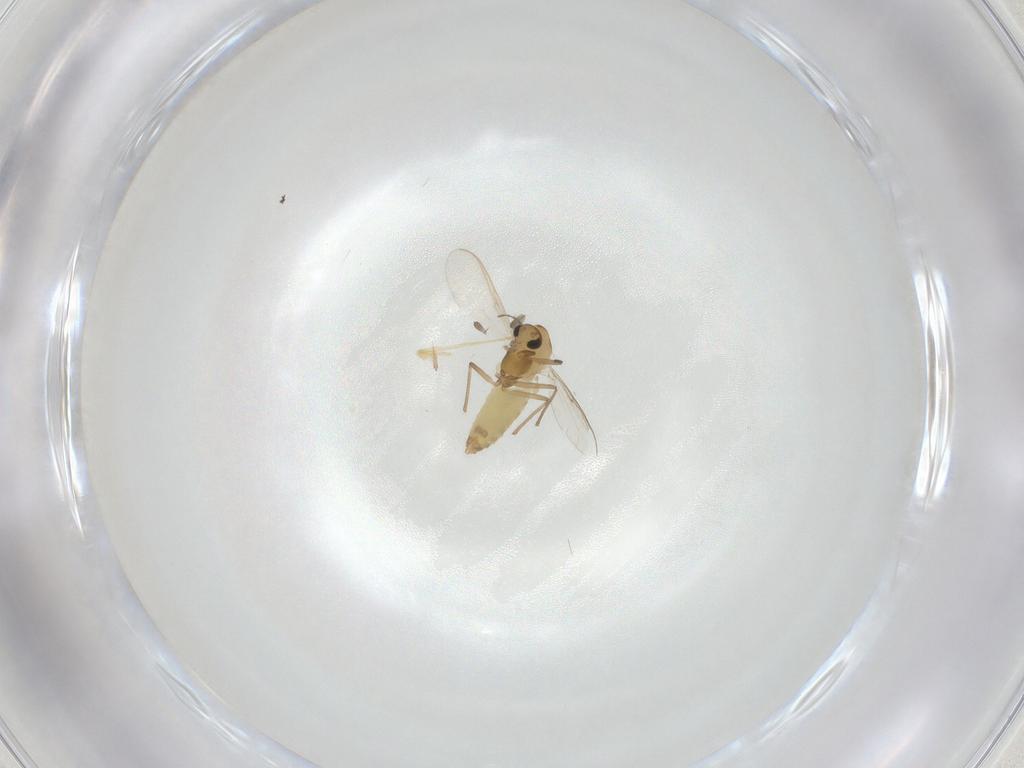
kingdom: Animalia
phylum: Arthropoda
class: Insecta
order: Diptera
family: Chironomidae
